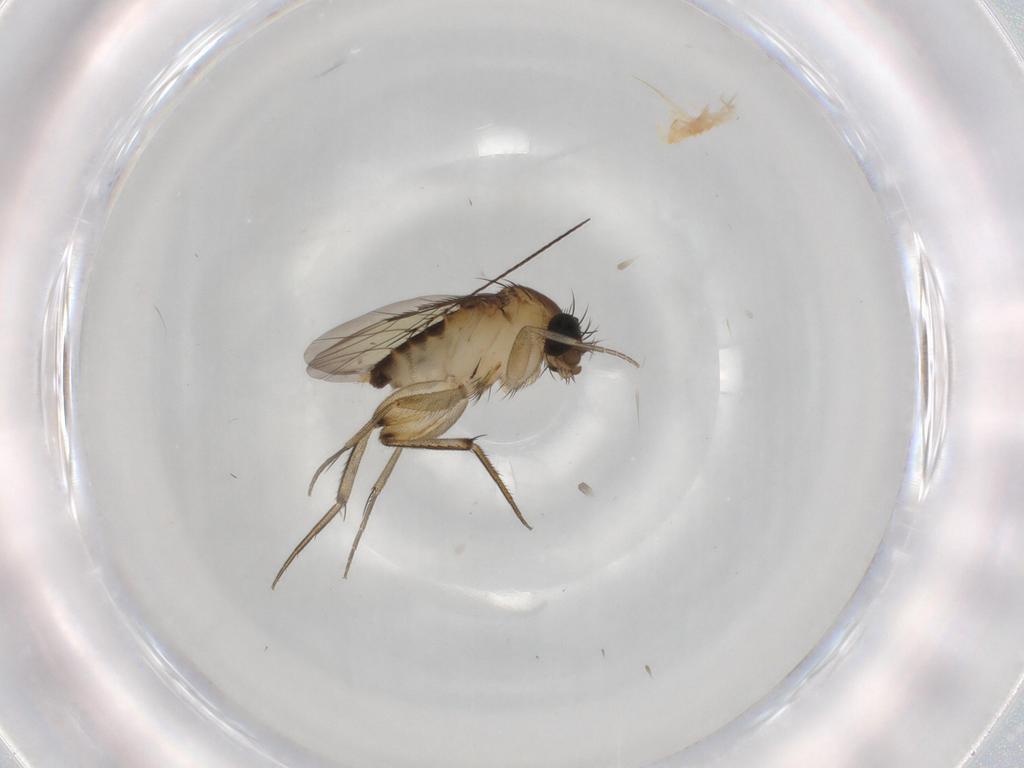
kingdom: Animalia
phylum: Arthropoda
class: Insecta
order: Diptera
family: Phoridae
